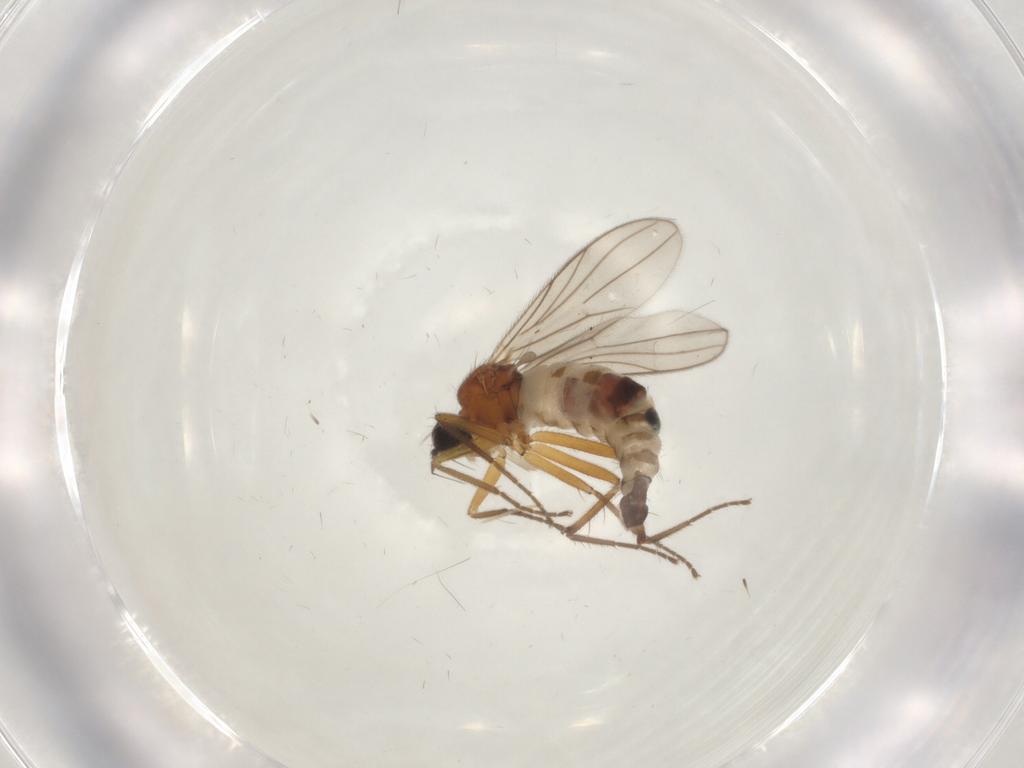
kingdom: Animalia
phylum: Arthropoda
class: Insecta
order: Diptera
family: Hybotidae
